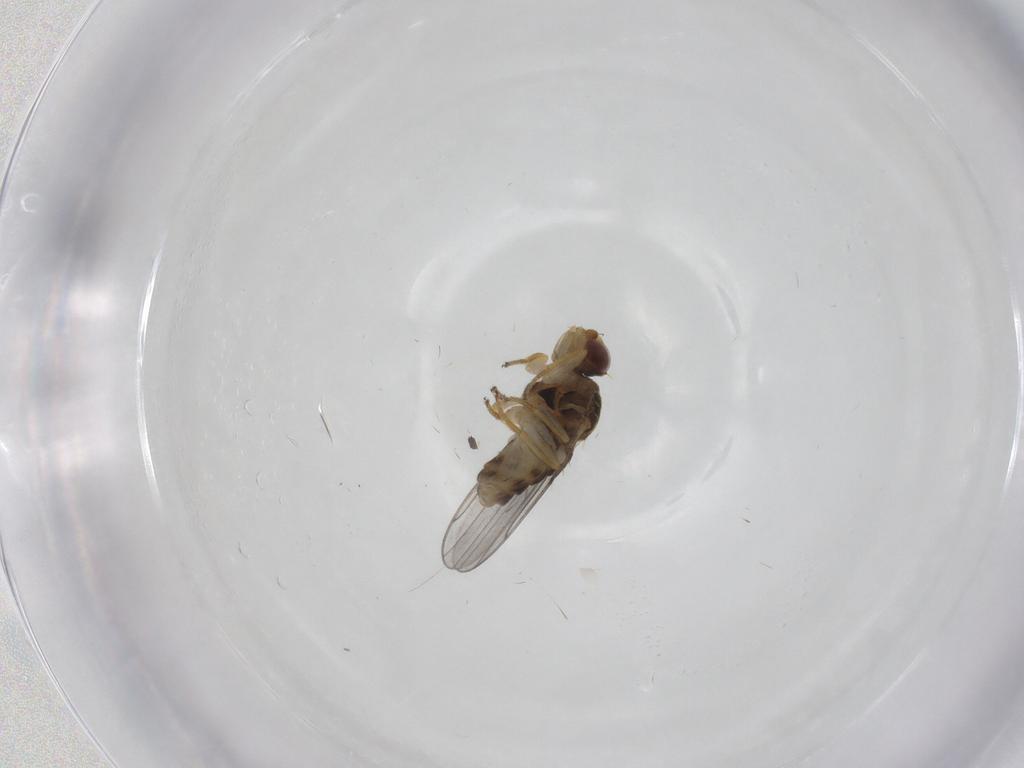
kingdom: Animalia
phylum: Arthropoda
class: Insecta
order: Diptera
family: Chloropidae
